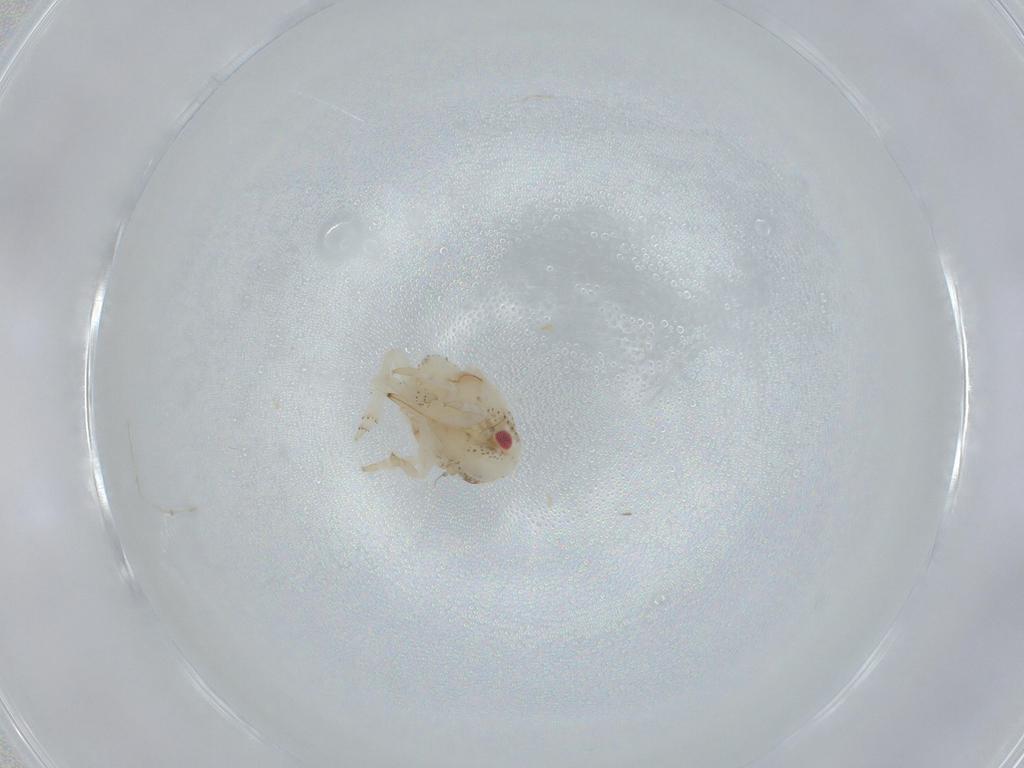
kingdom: Animalia
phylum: Arthropoda
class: Insecta
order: Hemiptera
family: Acanaloniidae
